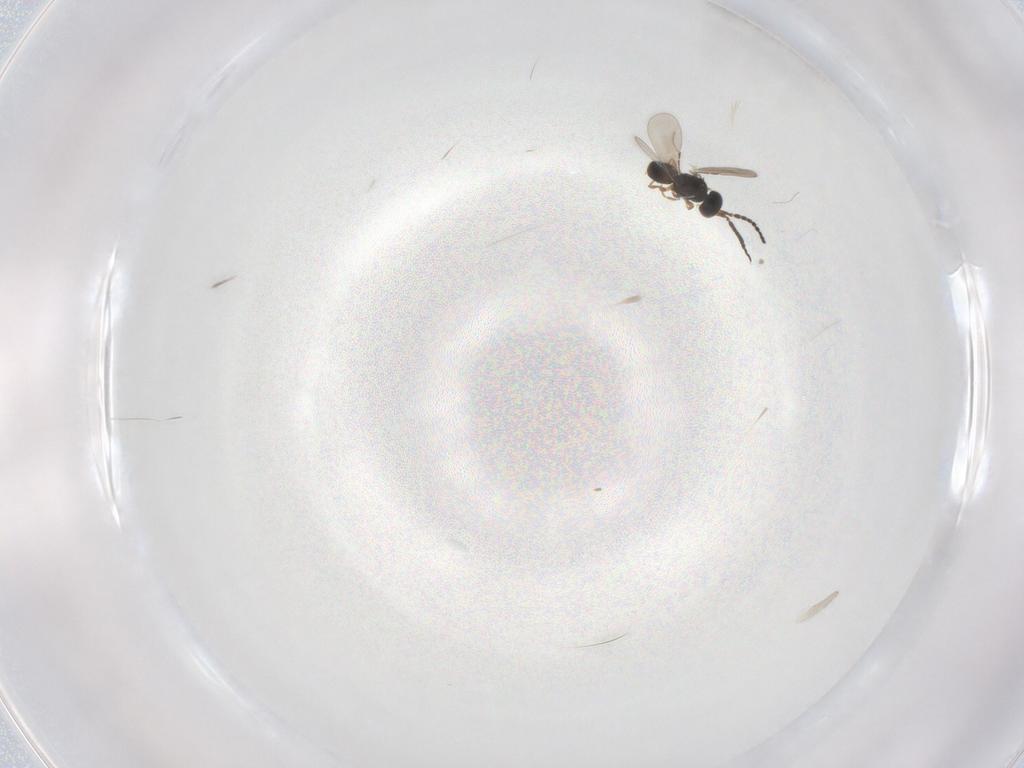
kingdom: Animalia
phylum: Arthropoda
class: Insecta
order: Hymenoptera
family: Ceraphronidae
